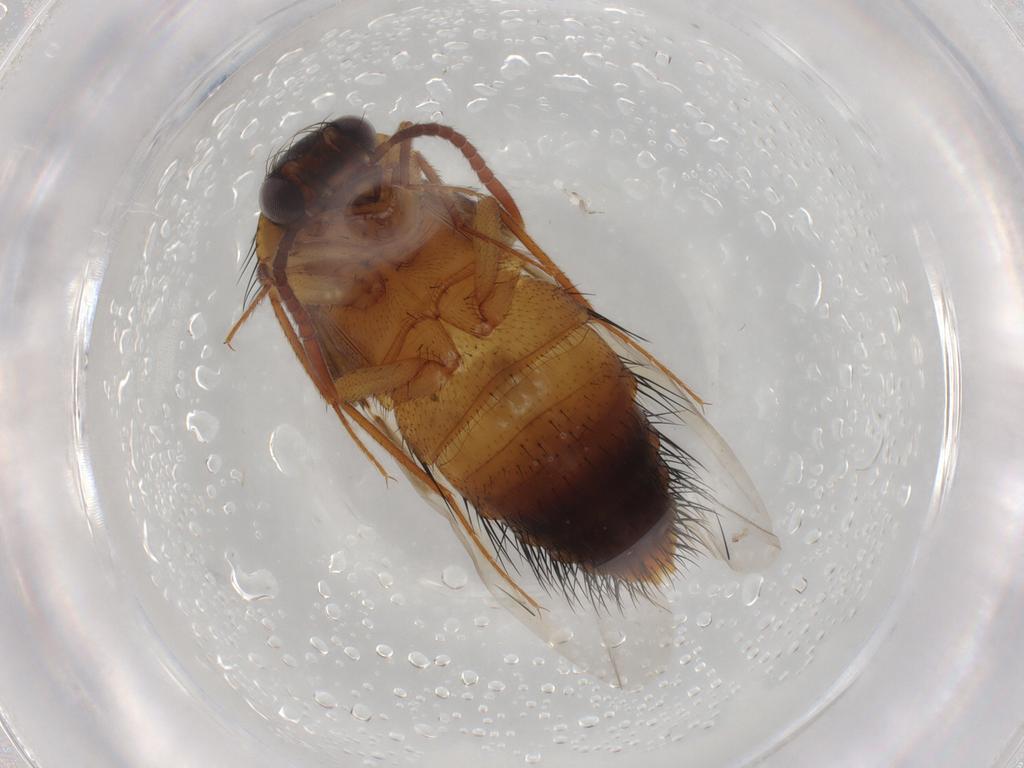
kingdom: Animalia
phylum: Arthropoda
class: Insecta
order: Coleoptera
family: Staphylinidae
